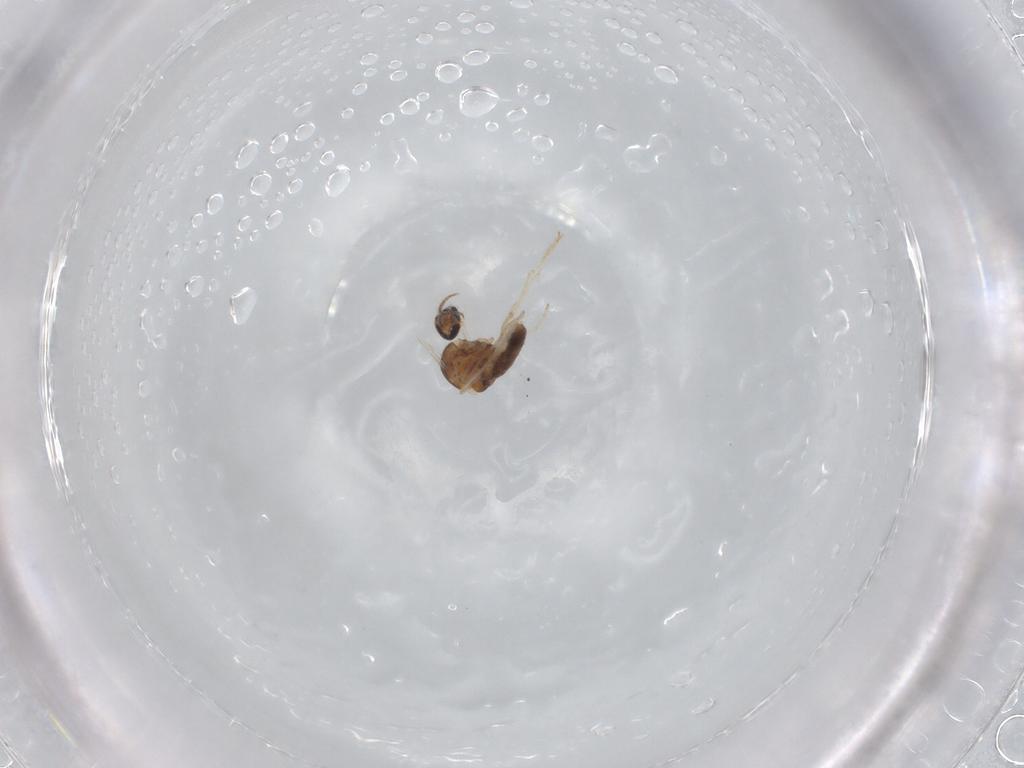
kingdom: Animalia
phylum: Arthropoda
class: Insecta
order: Diptera
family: Ceratopogonidae
